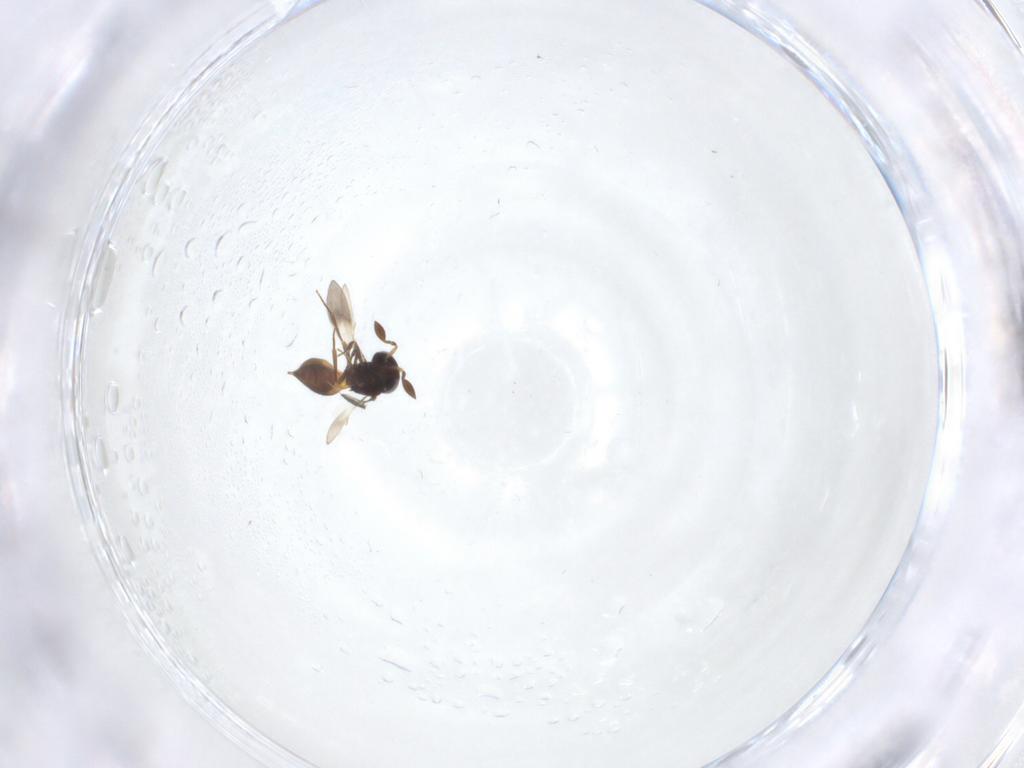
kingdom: Animalia
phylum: Arthropoda
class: Insecta
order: Hymenoptera
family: Scelionidae
